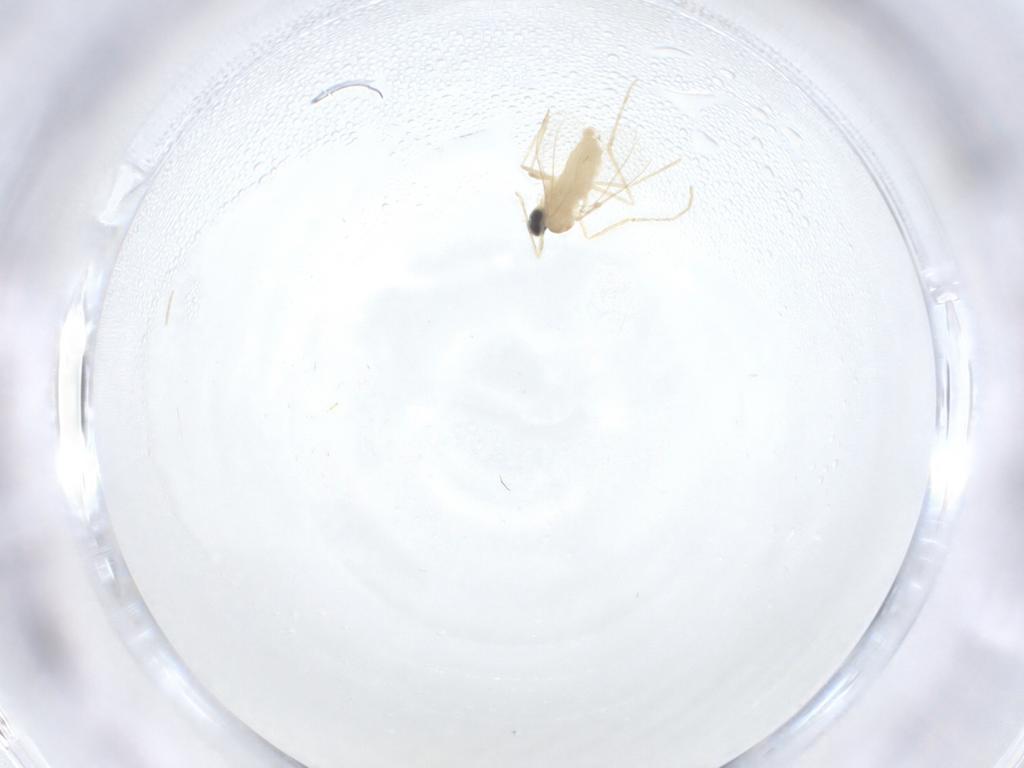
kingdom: Animalia
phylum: Arthropoda
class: Insecta
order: Diptera
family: Cecidomyiidae
